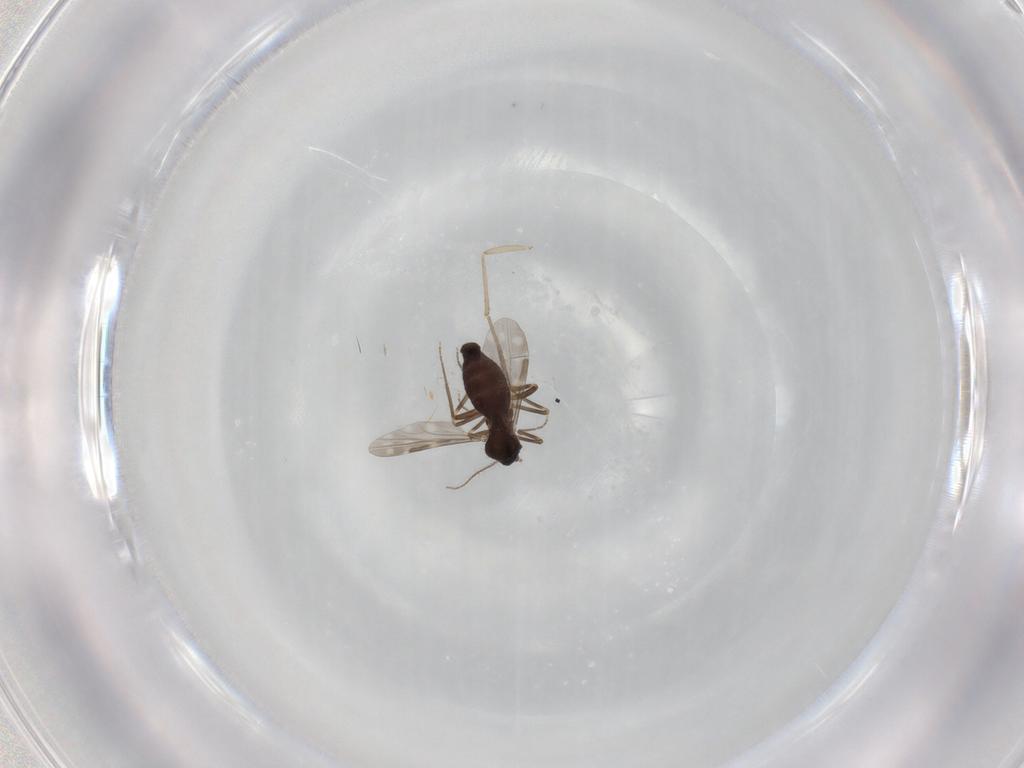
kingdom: Animalia
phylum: Arthropoda
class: Insecta
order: Diptera
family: Ceratopogonidae
